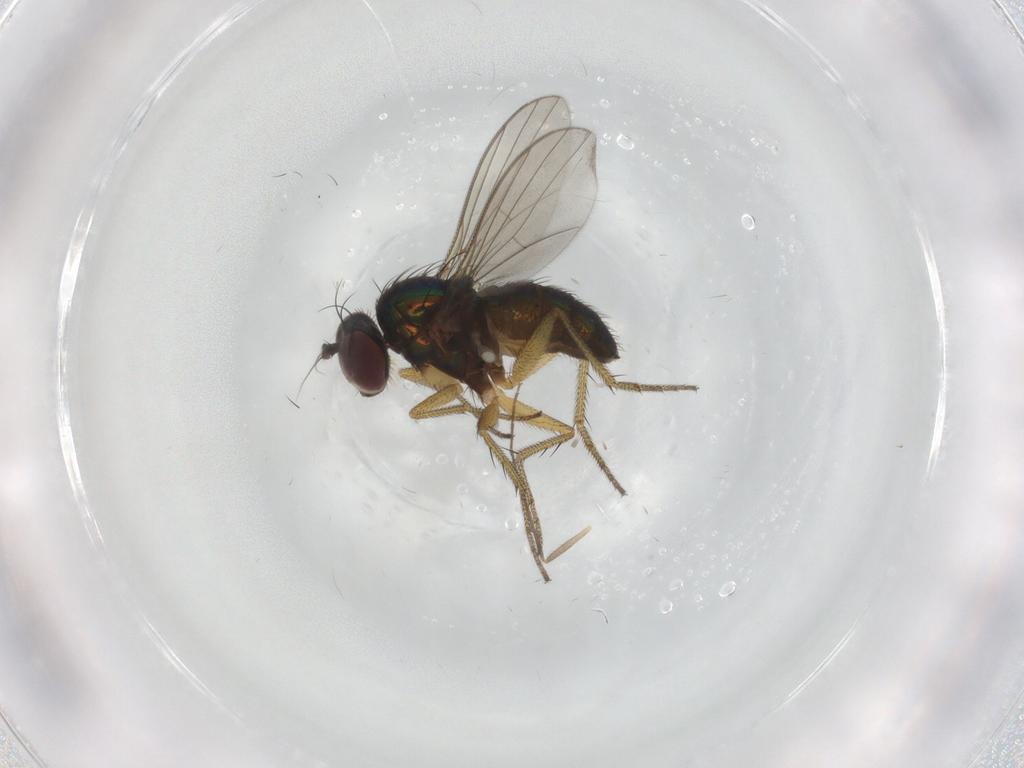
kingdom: Animalia
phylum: Arthropoda
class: Insecta
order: Diptera
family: Chironomidae
